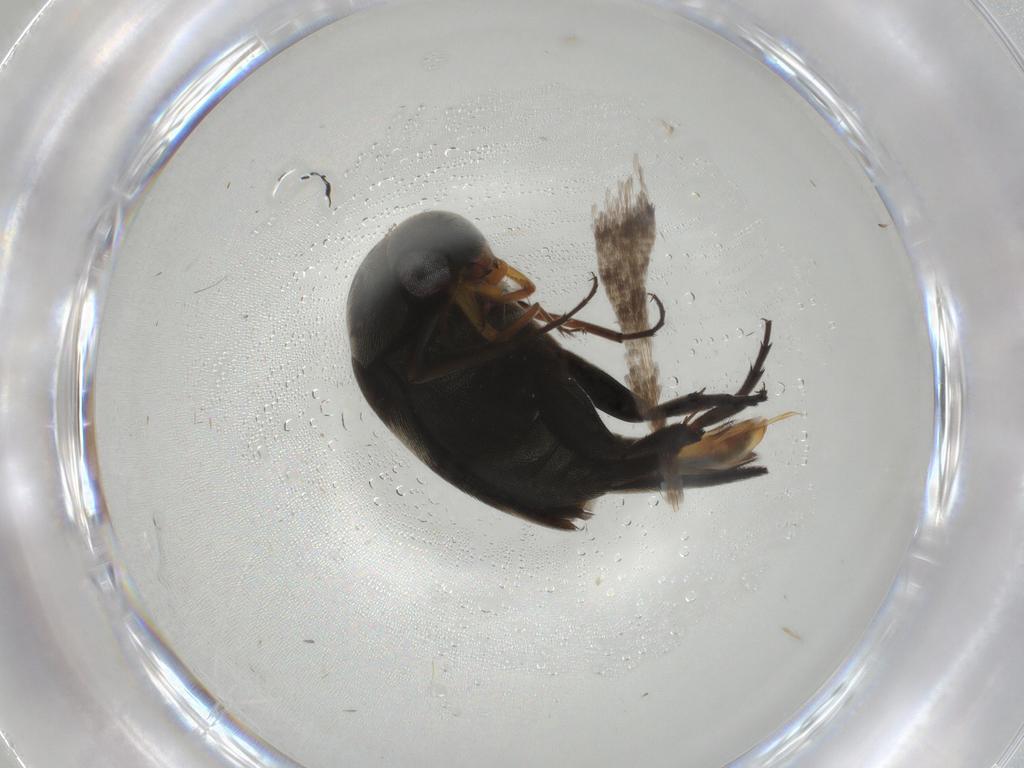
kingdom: Animalia
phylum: Arthropoda
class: Insecta
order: Coleoptera
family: Mordellidae
